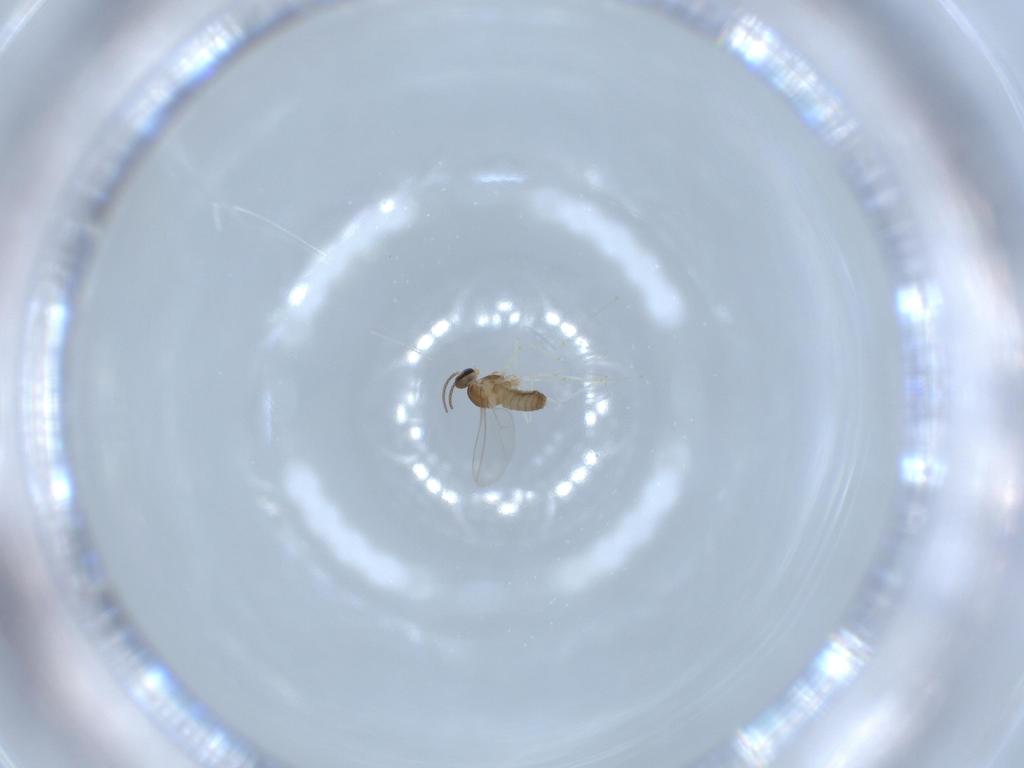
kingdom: Animalia
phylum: Arthropoda
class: Insecta
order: Diptera
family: Cecidomyiidae
